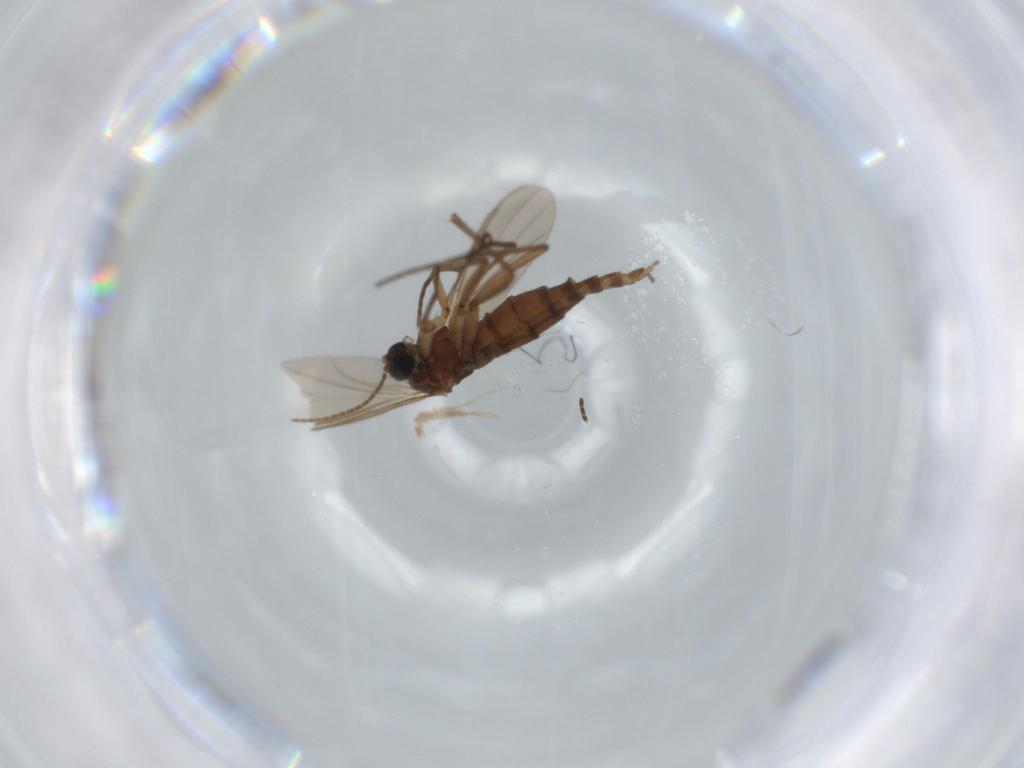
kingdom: Animalia
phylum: Arthropoda
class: Insecta
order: Diptera
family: Sciaridae
